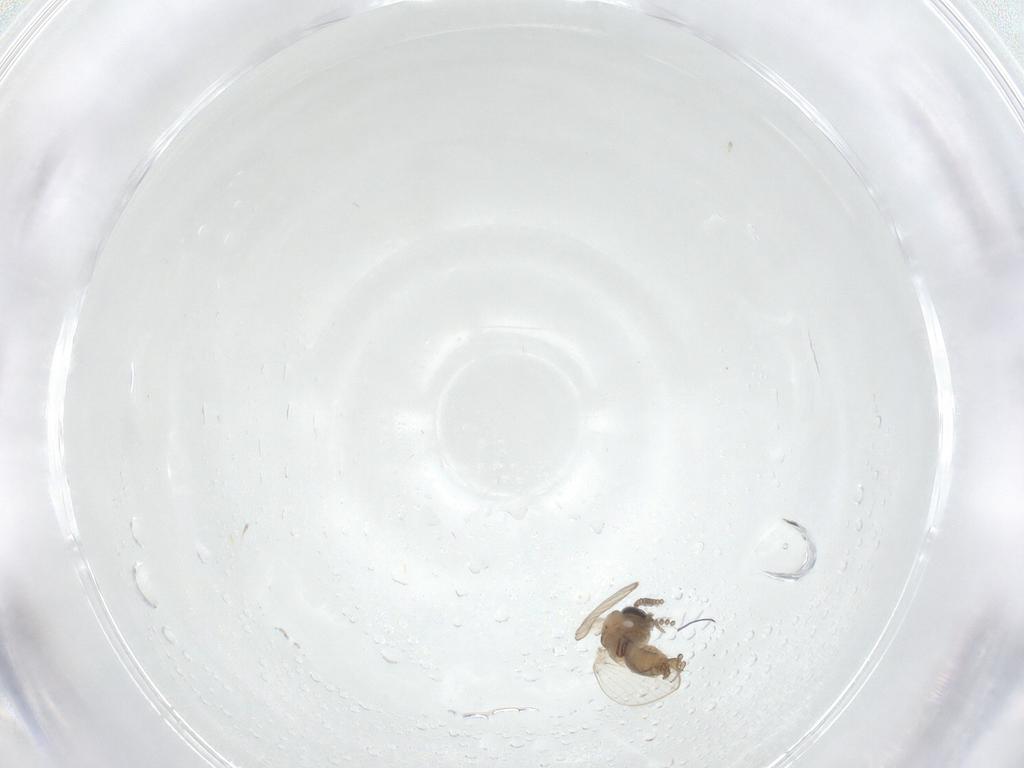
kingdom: Animalia
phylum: Arthropoda
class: Insecta
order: Diptera
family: Psychodidae
